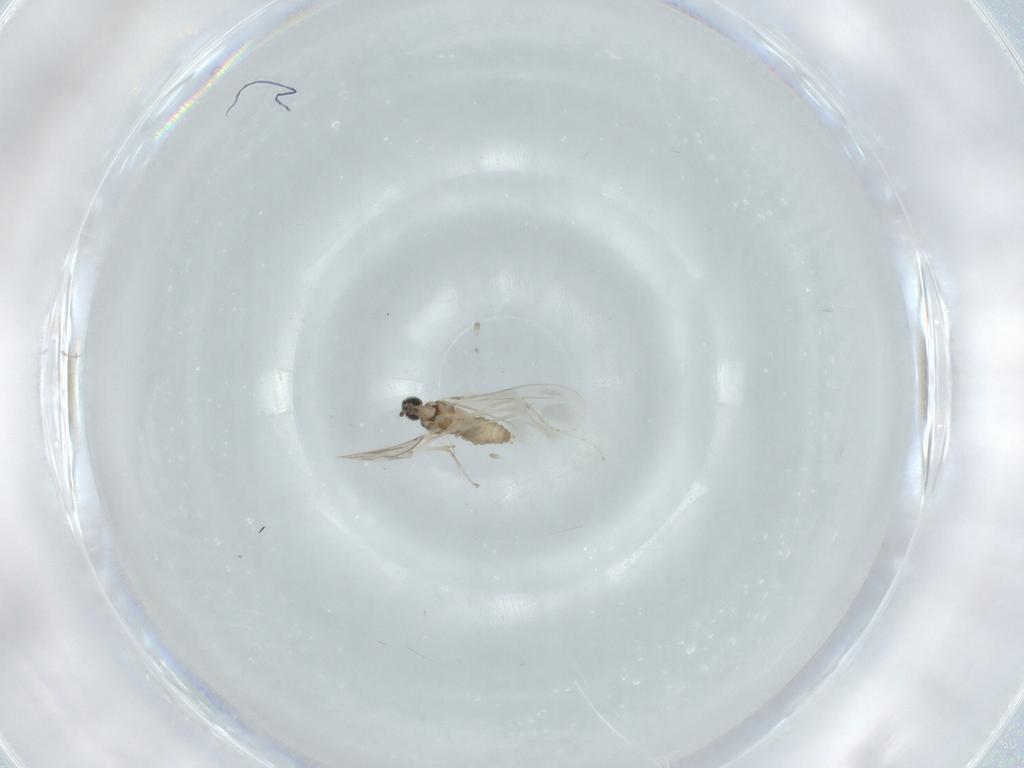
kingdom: Animalia
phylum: Arthropoda
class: Insecta
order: Diptera
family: Cecidomyiidae
